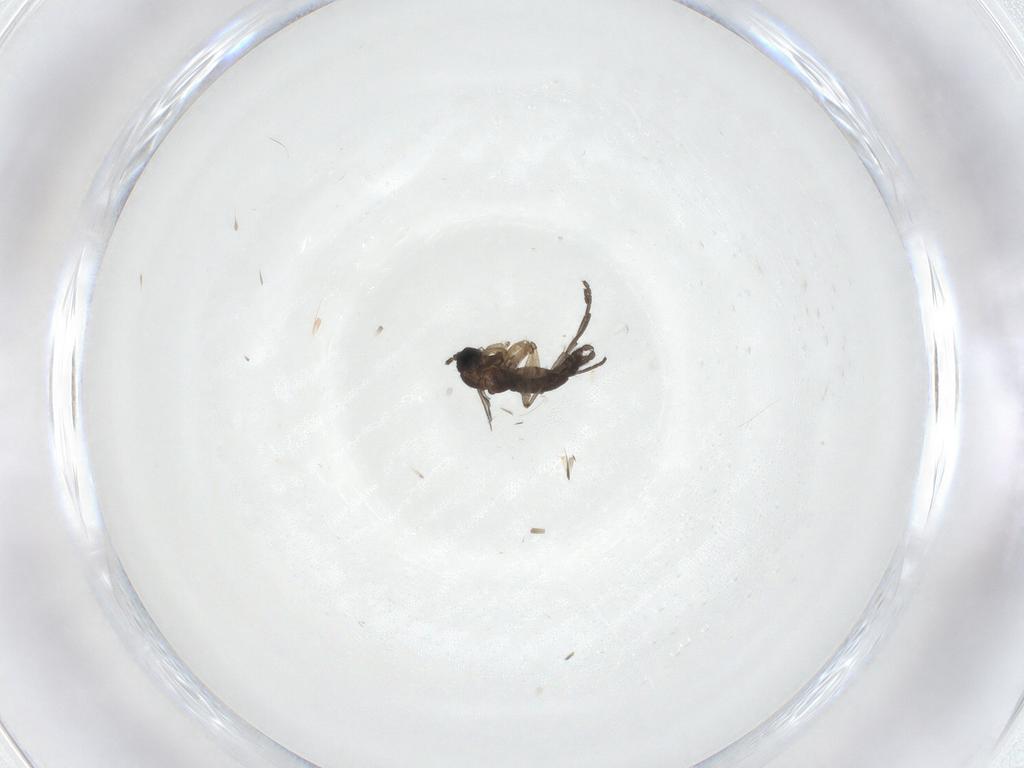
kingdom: Animalia
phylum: Arthropoda
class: Insecta
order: Diptera
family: Sciaridae
